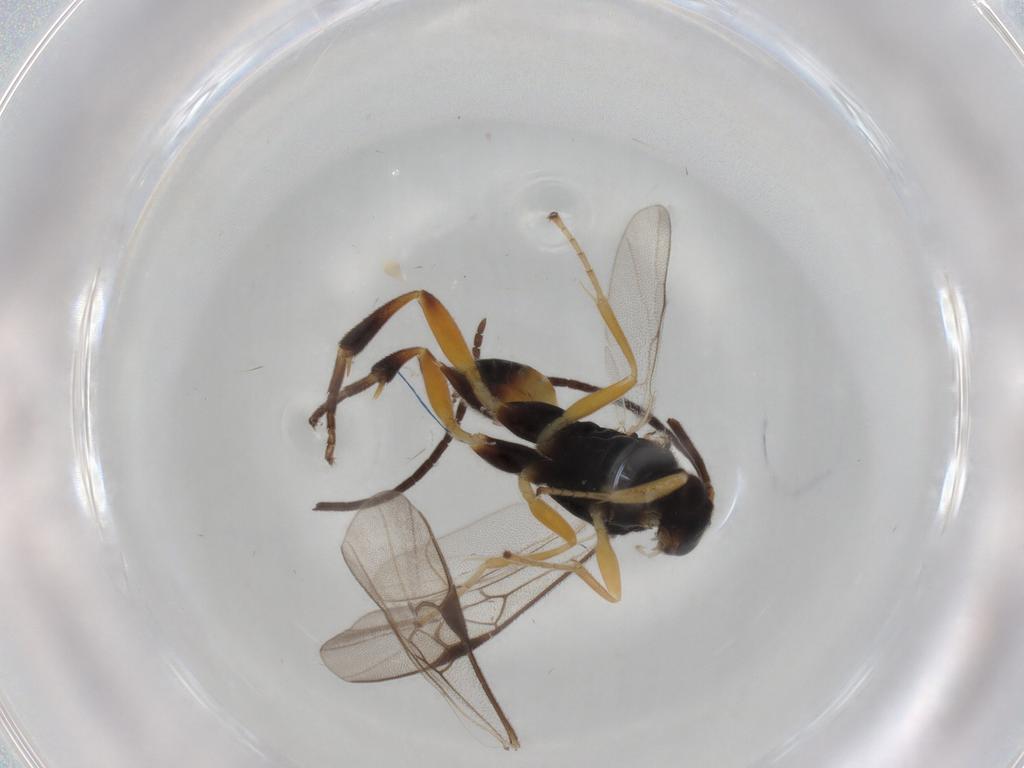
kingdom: Animalia
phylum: Arthropoda
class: Insecta
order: Hymenoptera
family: Braconidae
